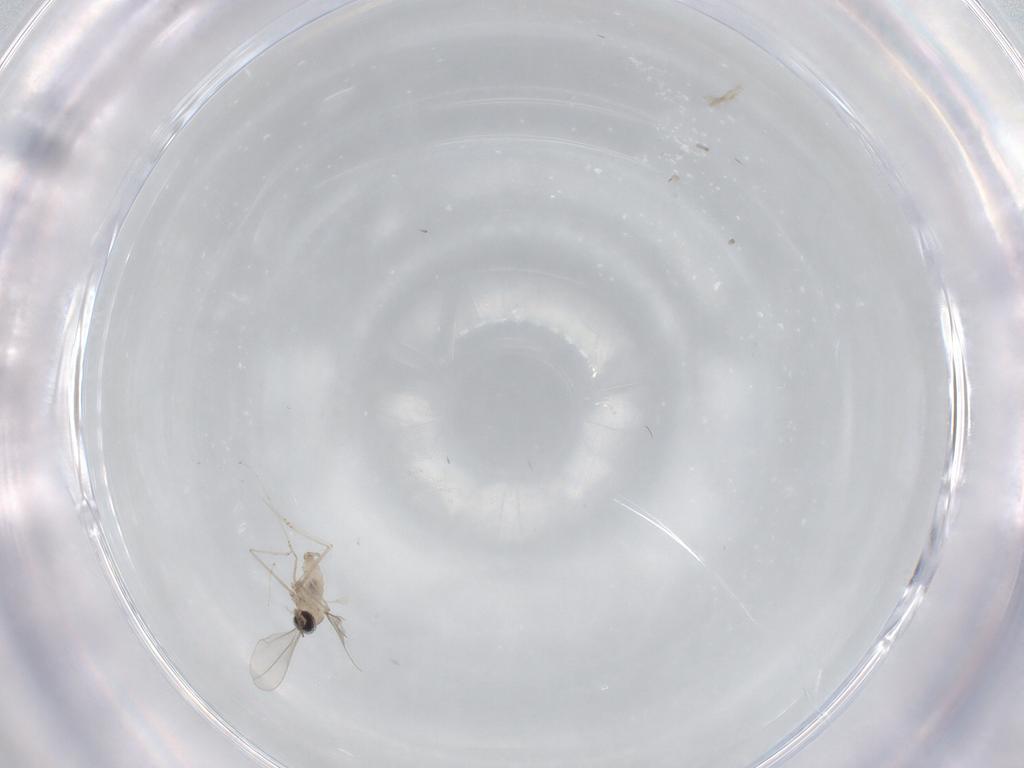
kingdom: Animalia
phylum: Arthropoda
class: Insecta
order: Diptera
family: Cecidomyiidae
